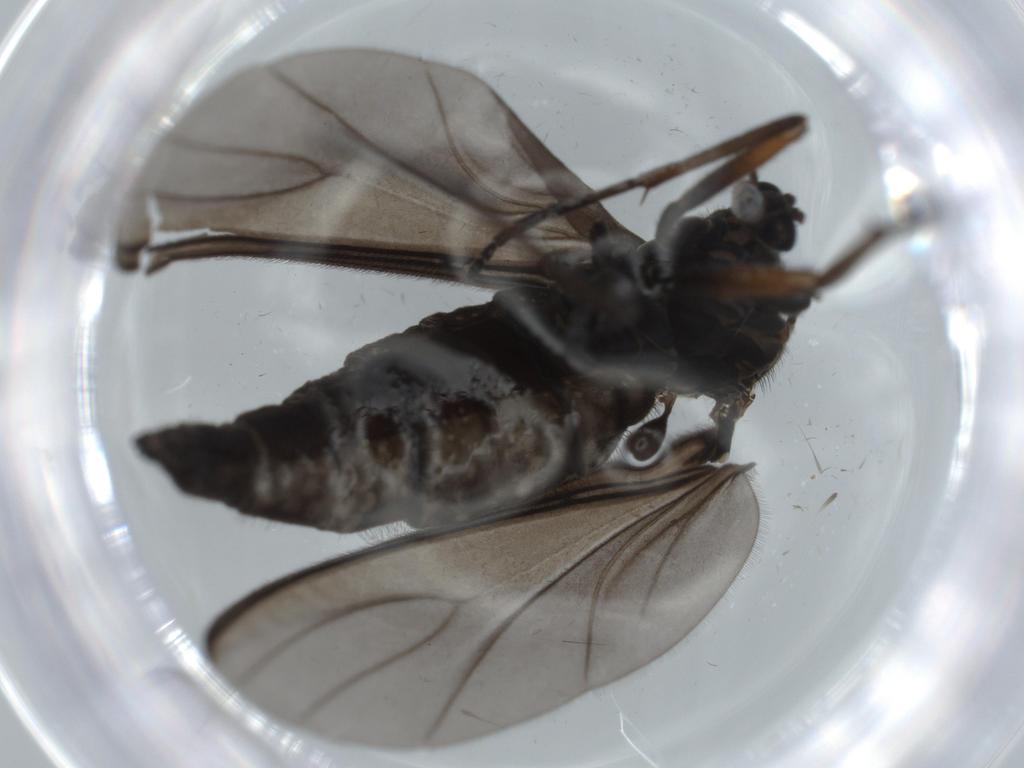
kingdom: Animalia
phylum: Arthropoda
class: Insecta
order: Diptera
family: Sciaridae
